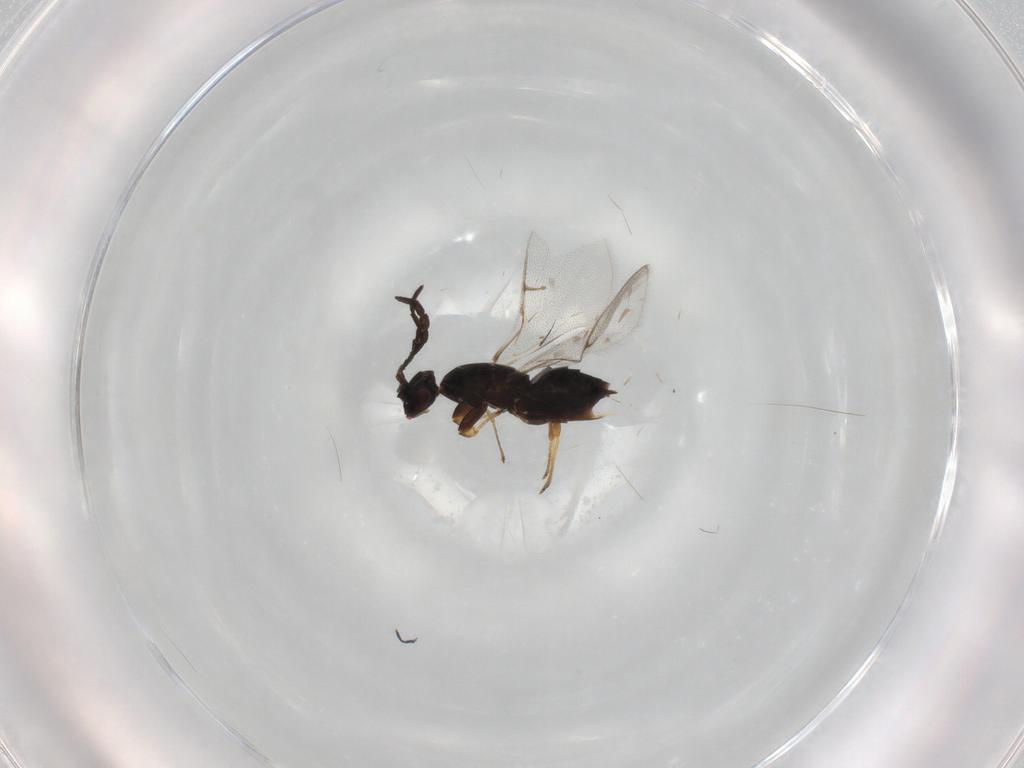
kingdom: Animalia
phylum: Arthropoda
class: Insecta
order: Hymenoptera
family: Agaonidae
